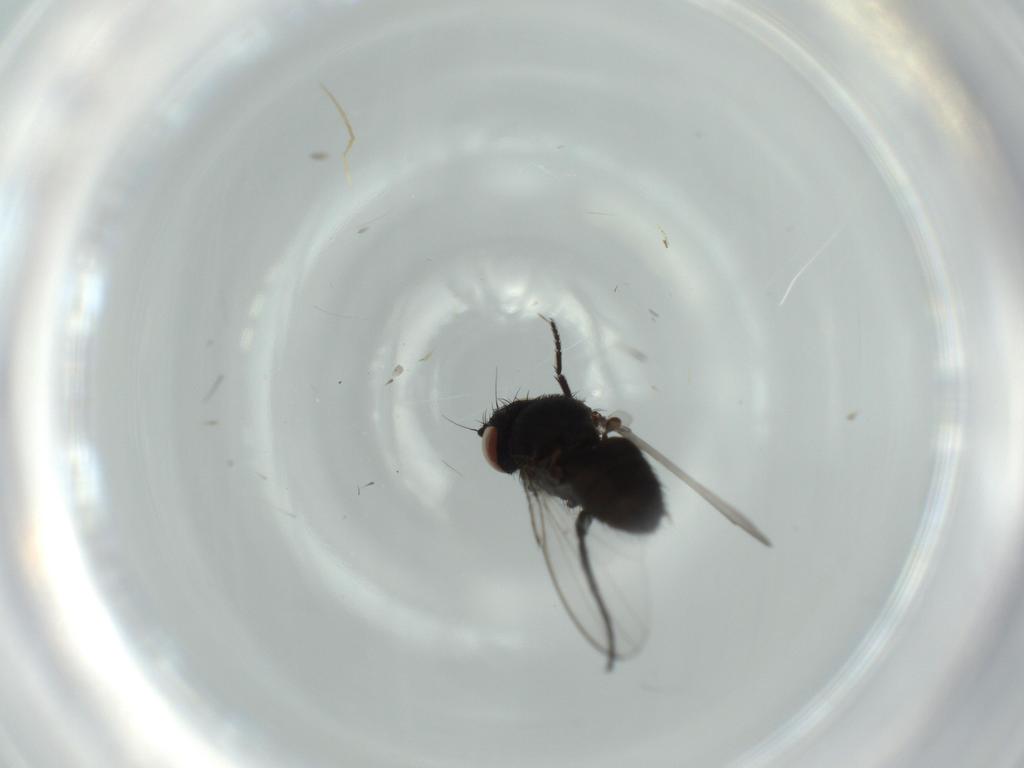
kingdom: Animalia
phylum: Arthropoda
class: Insecta
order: Diptera
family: Milichiidae
